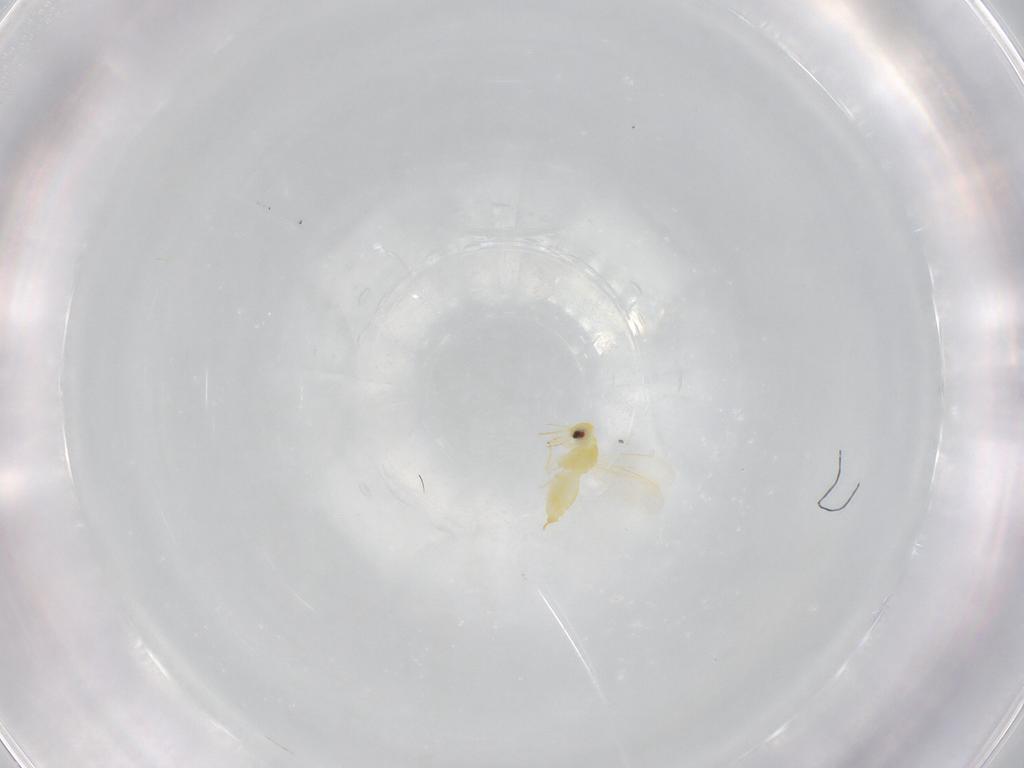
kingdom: Animalia
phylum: Arthropoda
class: Insecta
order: Hemiptera
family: Aleyrodidae
